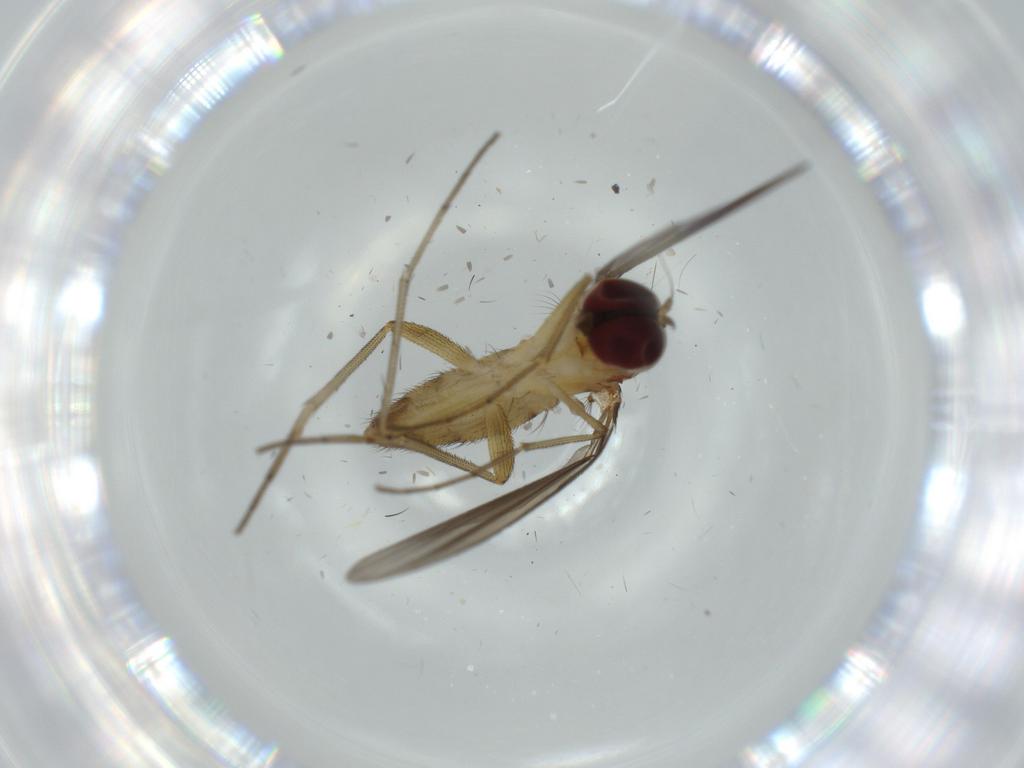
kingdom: Animalia
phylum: Arthropoda
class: Insecta
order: Diptera
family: Dolichopodidae
